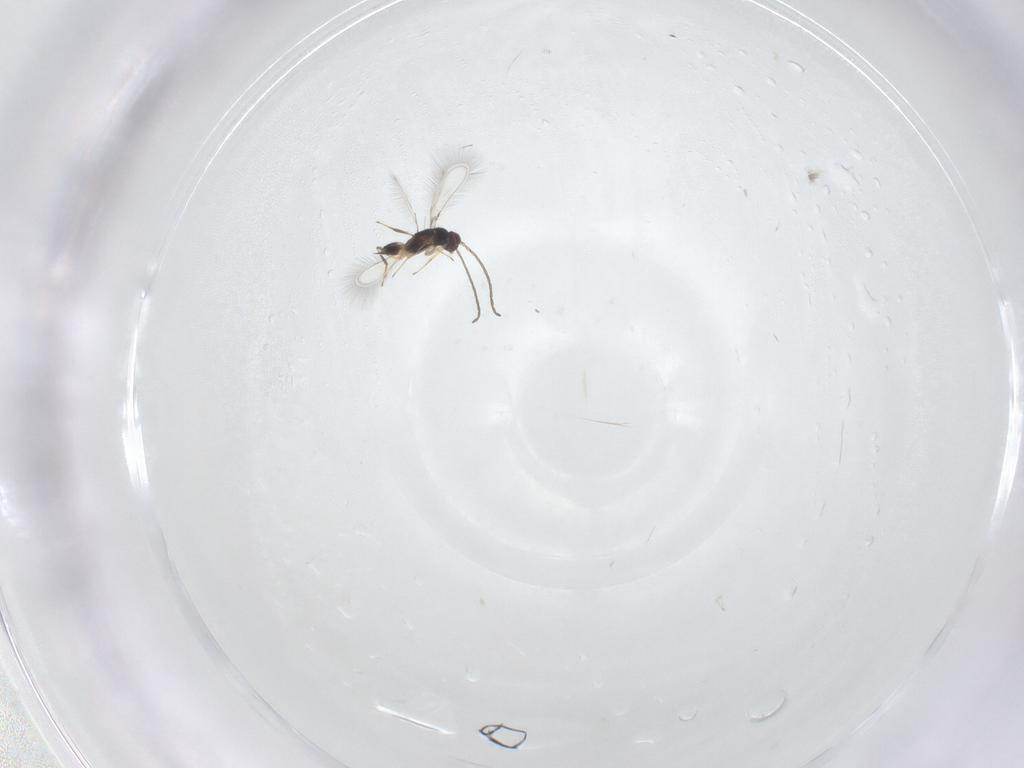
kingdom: Animalia
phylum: Arthropoda
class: Insecta
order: Hymenoptera
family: Mymaridae
